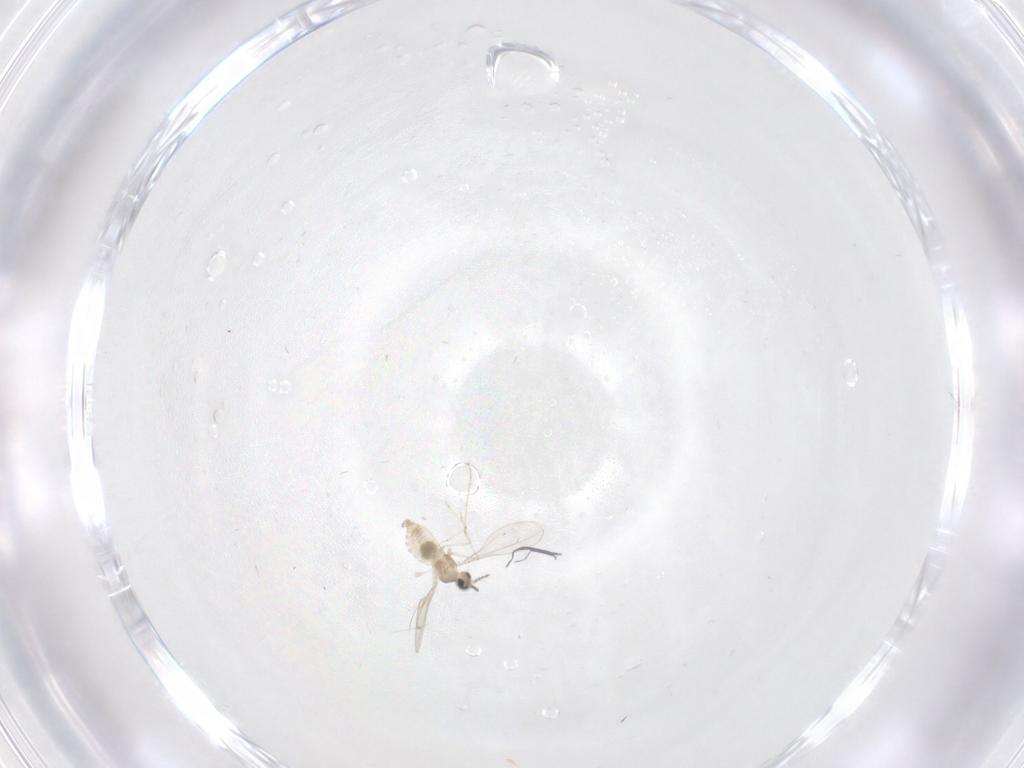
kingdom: Animalia
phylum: Arthropoda
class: Insecta
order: Diptera
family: Cecidomyiidae
